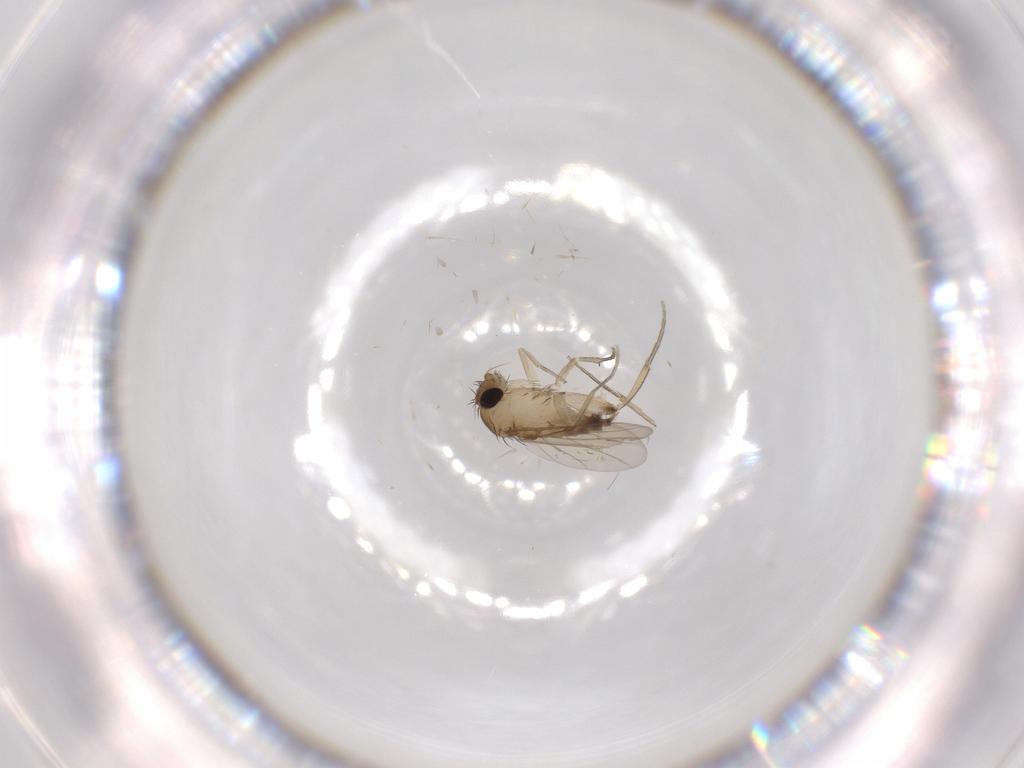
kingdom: Animalia
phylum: Arthropoda
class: Insecta
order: Diptera
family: Phoridae
